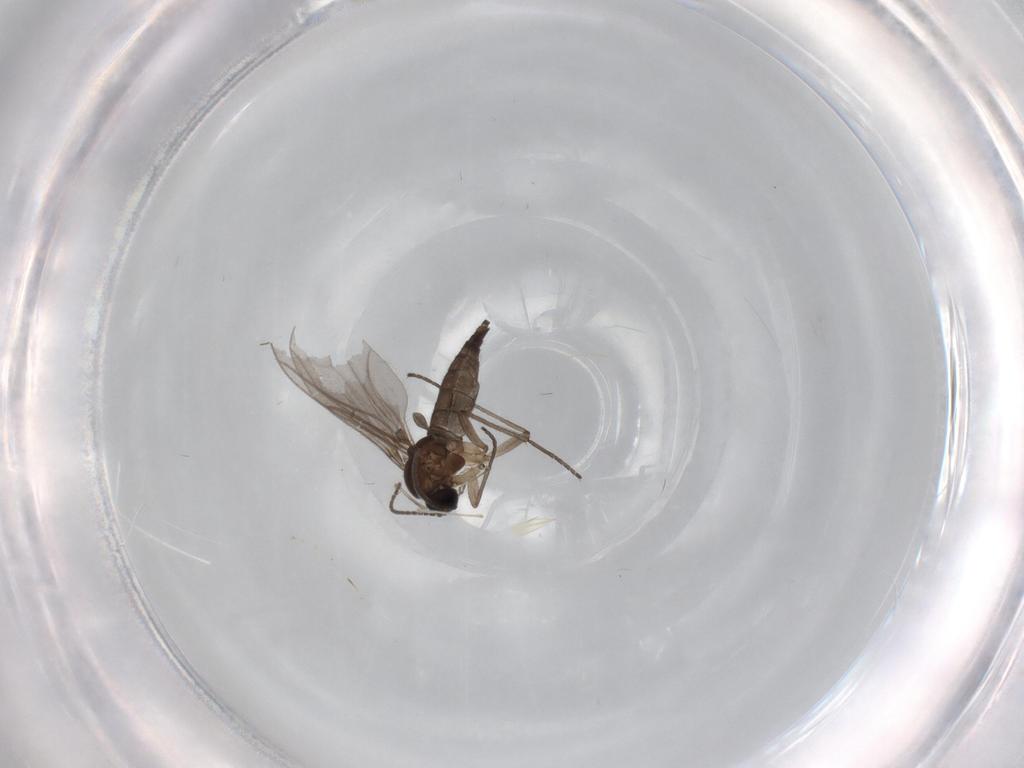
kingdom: Animalia
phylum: Arthropoda
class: Insecta
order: Diptera
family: Sciaridae
